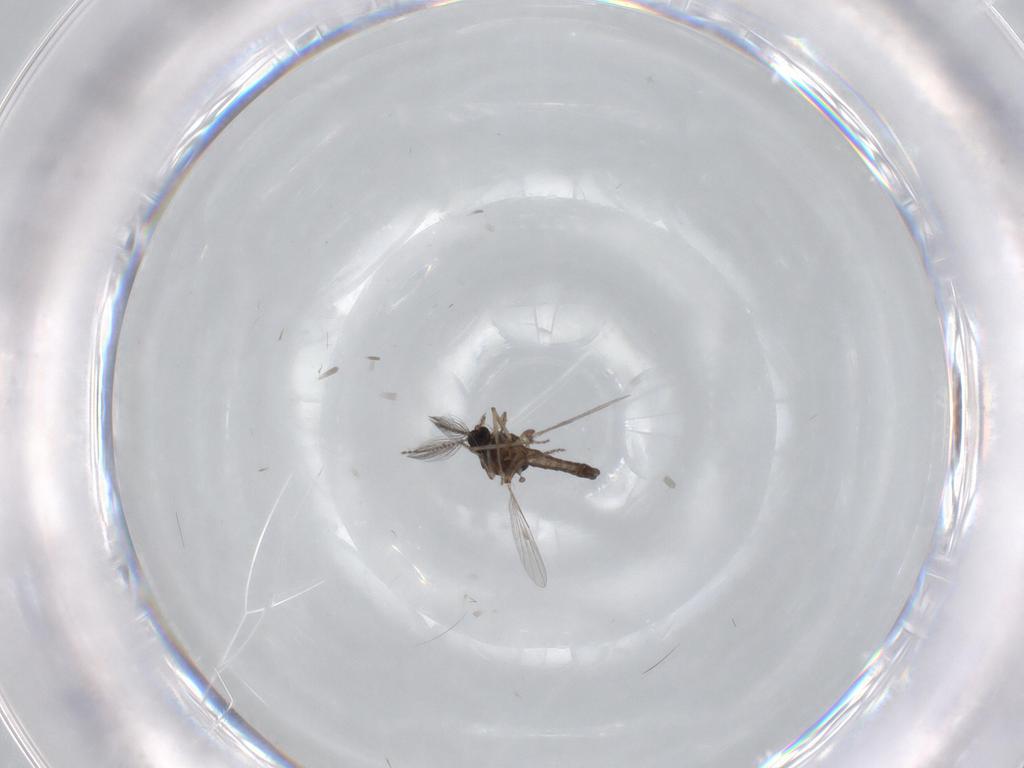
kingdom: Animalia
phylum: Arthropoda
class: Insecta
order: Diptera
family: Ceratopogonidae
